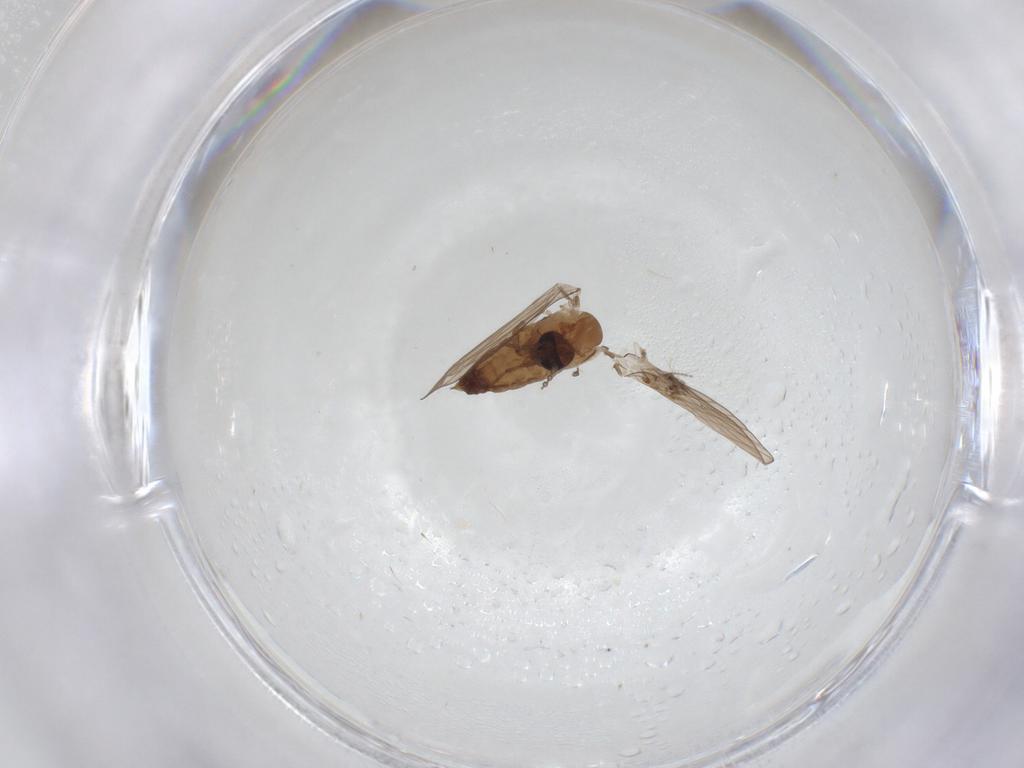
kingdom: Animalia
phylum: Arthropoda
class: Insecta
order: Diptera
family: Psychodidae
